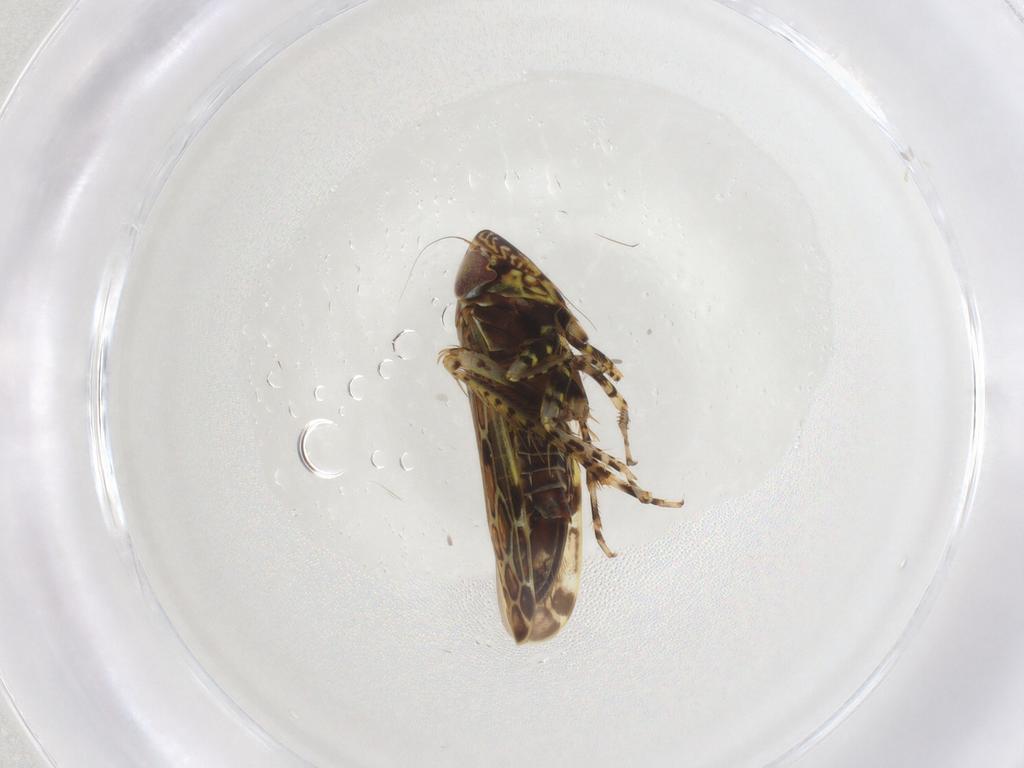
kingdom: Animalia
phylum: Arthropoda
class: Insecta
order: Hemiptera
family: Cicadellidae
